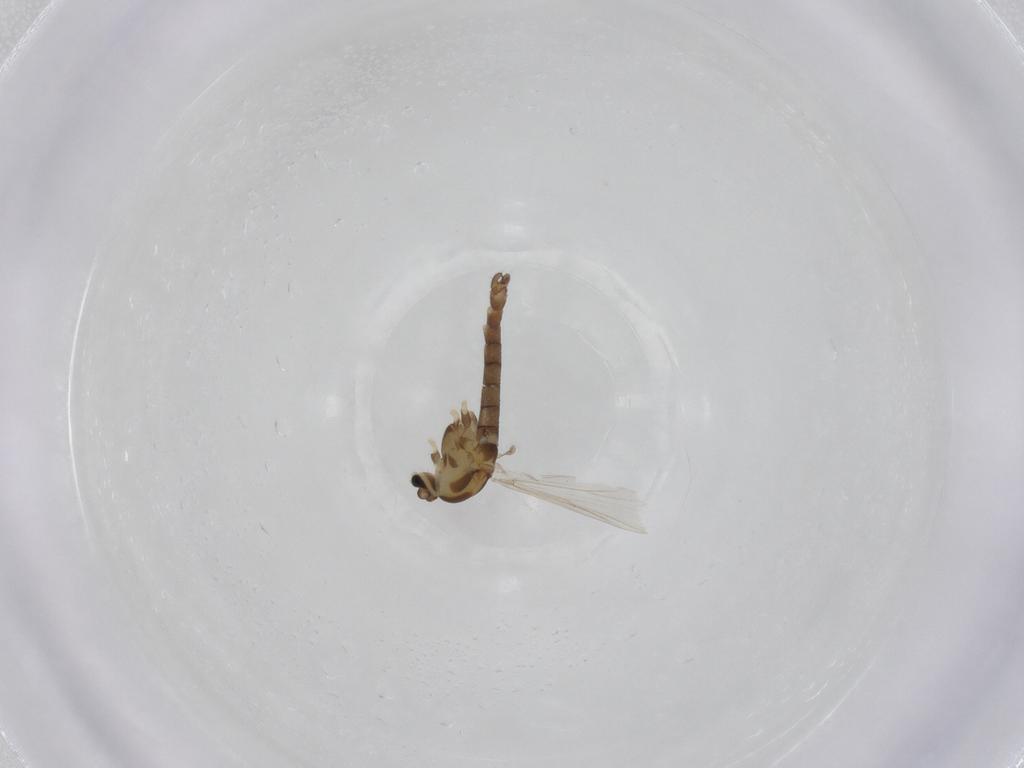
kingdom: Animalia
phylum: Arthropoda
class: Insecta
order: Diptera
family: Chironomidae
